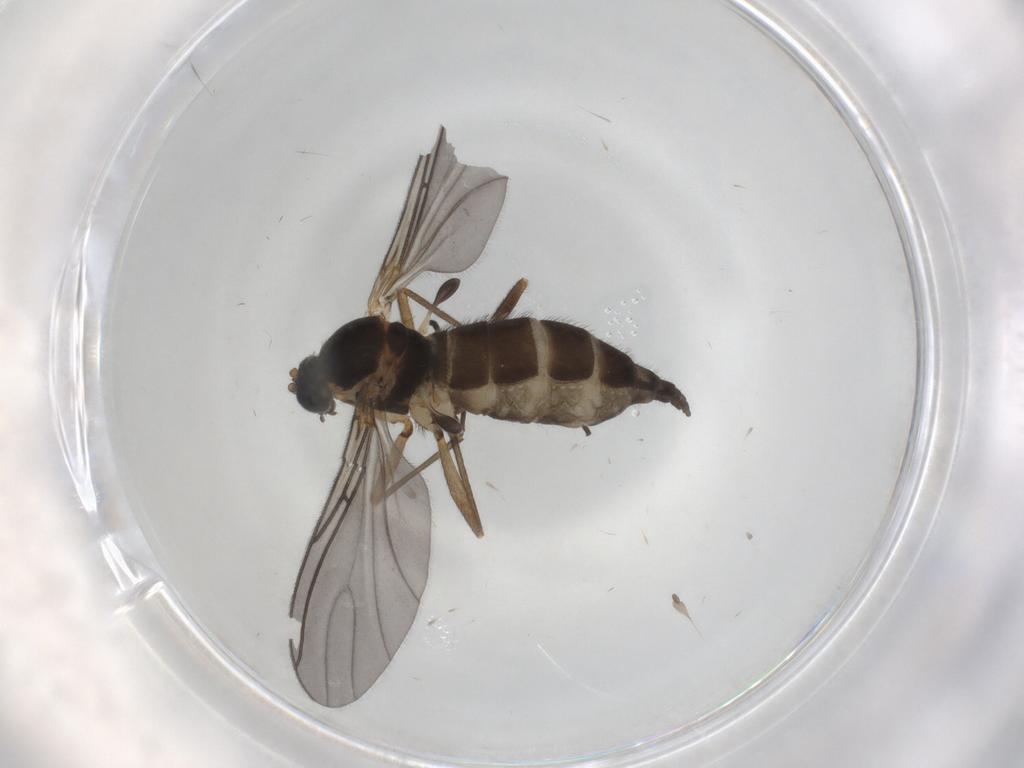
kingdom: Animalia
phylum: Arthropoda
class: Insecta
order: Diptera
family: Sciaridae
